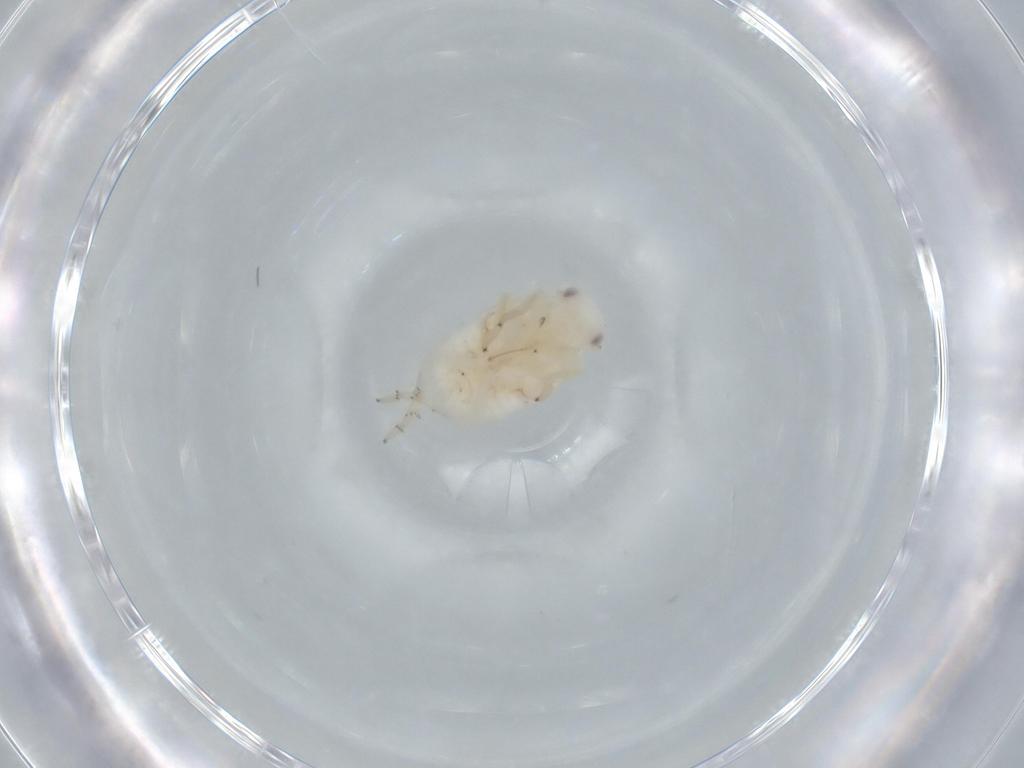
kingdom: Animalia
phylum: Arthropoda
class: Insecta
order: Hemiptera
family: Flatidae
